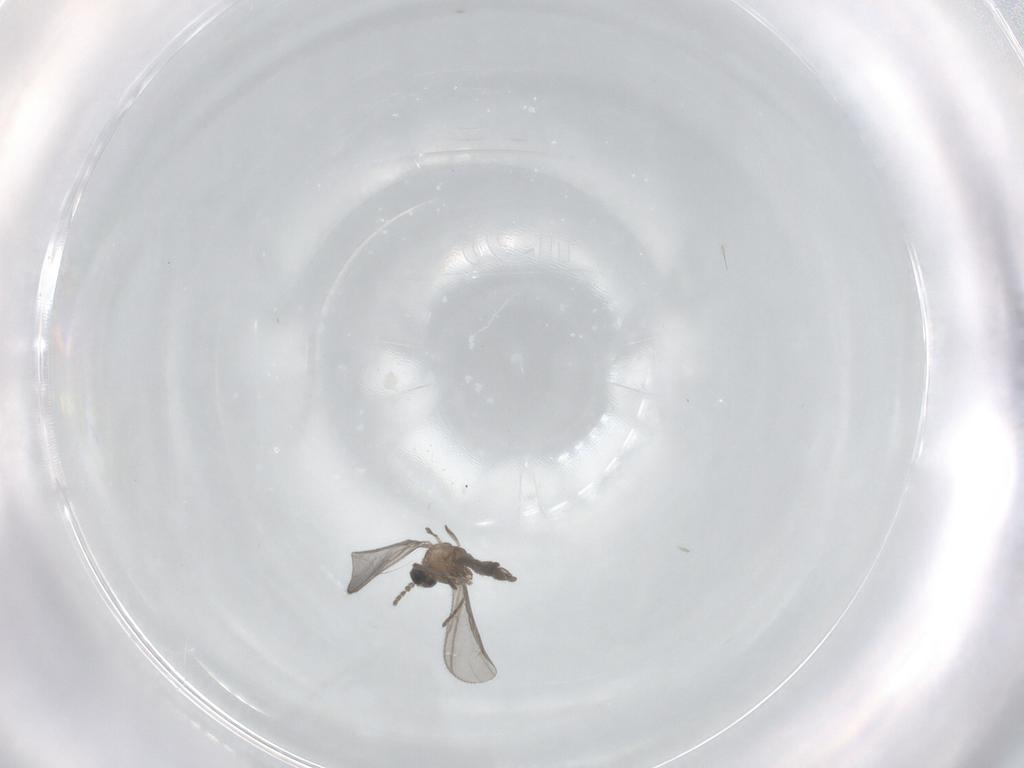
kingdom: Animalia
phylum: Arthropoda
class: Insecta
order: Diptera
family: Sciaridae
